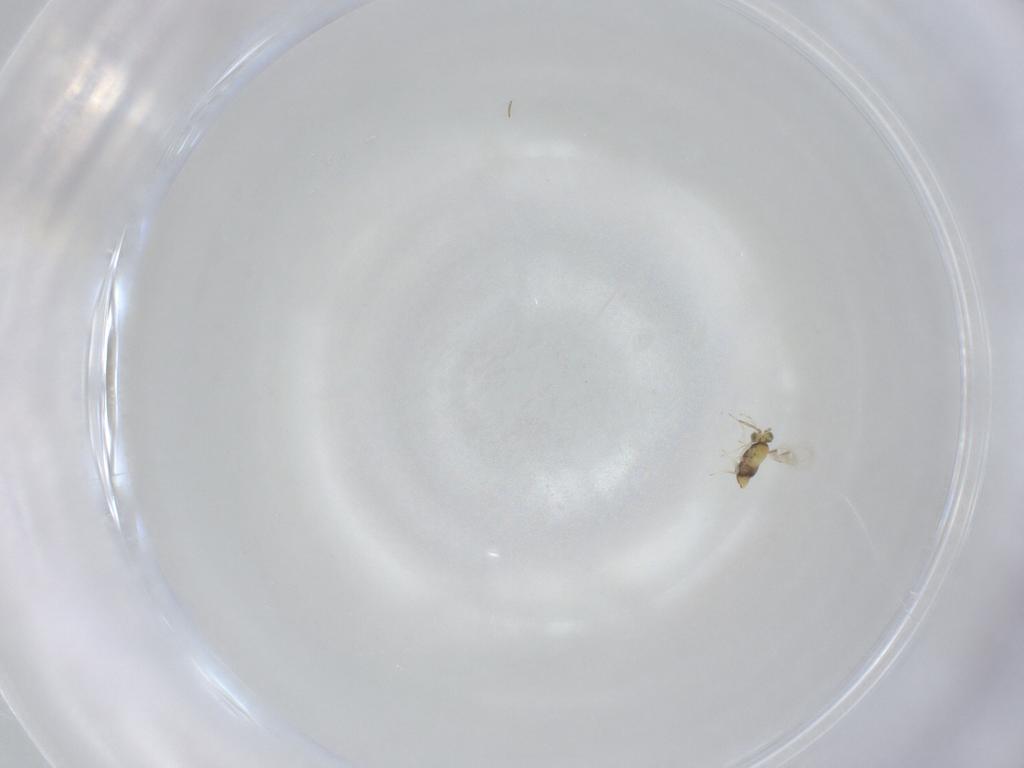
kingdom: Animalia
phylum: Arthropoda
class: Insecta
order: Hymenoptera
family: Aphelinidae
